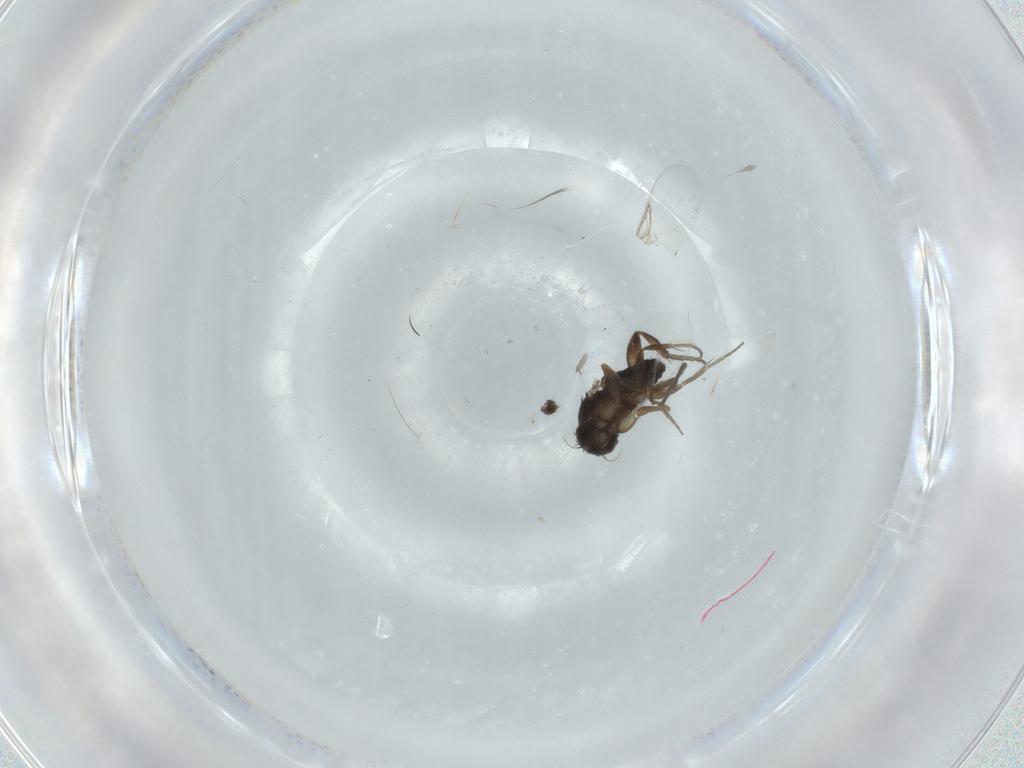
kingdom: Animalia
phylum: Arthropoda
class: Insecta
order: Diptera
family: Phoridae
